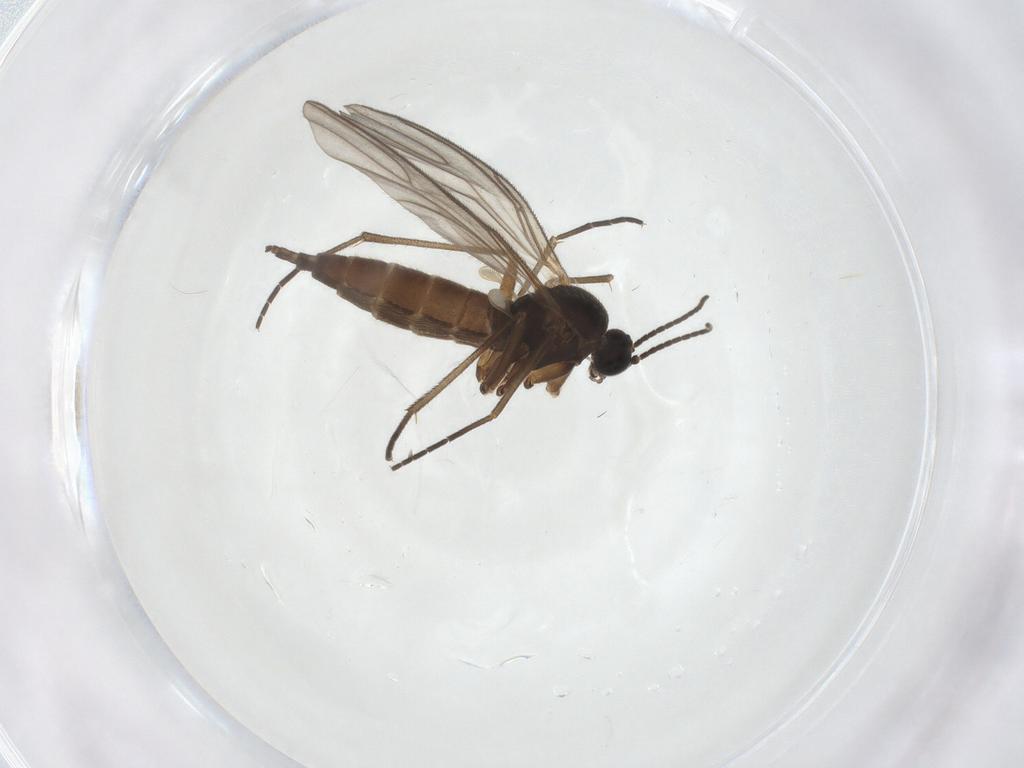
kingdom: Animalia
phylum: Arthropoda
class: Insecta
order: Diptera
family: Sciaridae
